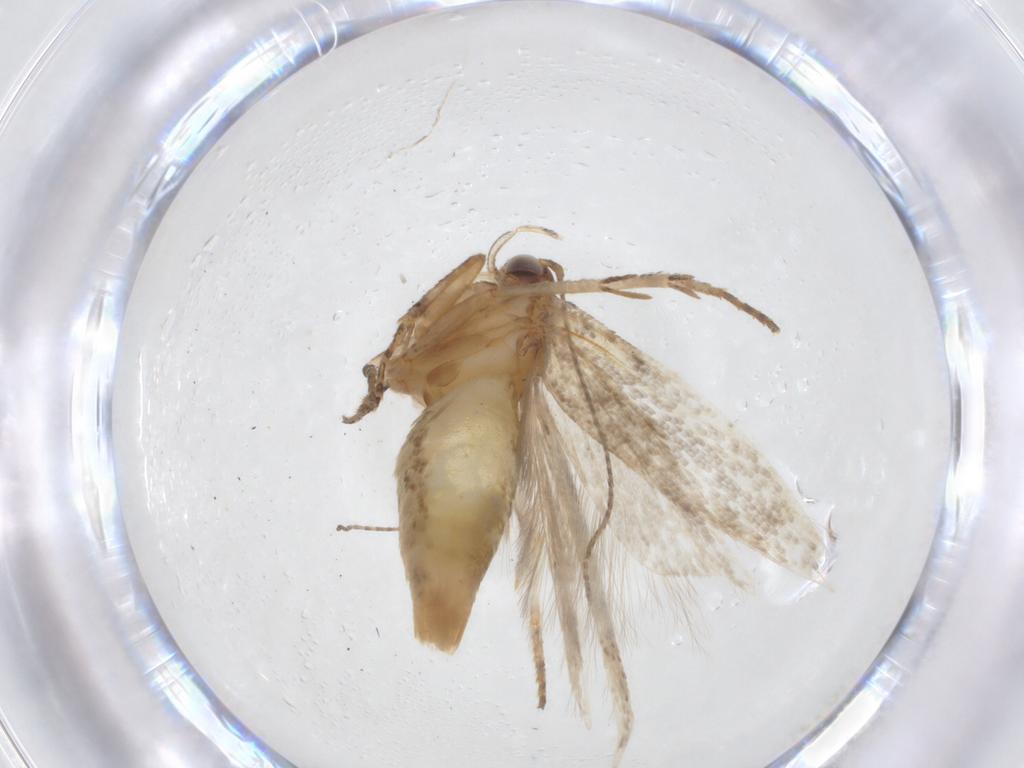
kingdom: Animalia
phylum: Arthropoda
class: Insecta
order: Lepidoptera
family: Gelechiidae
